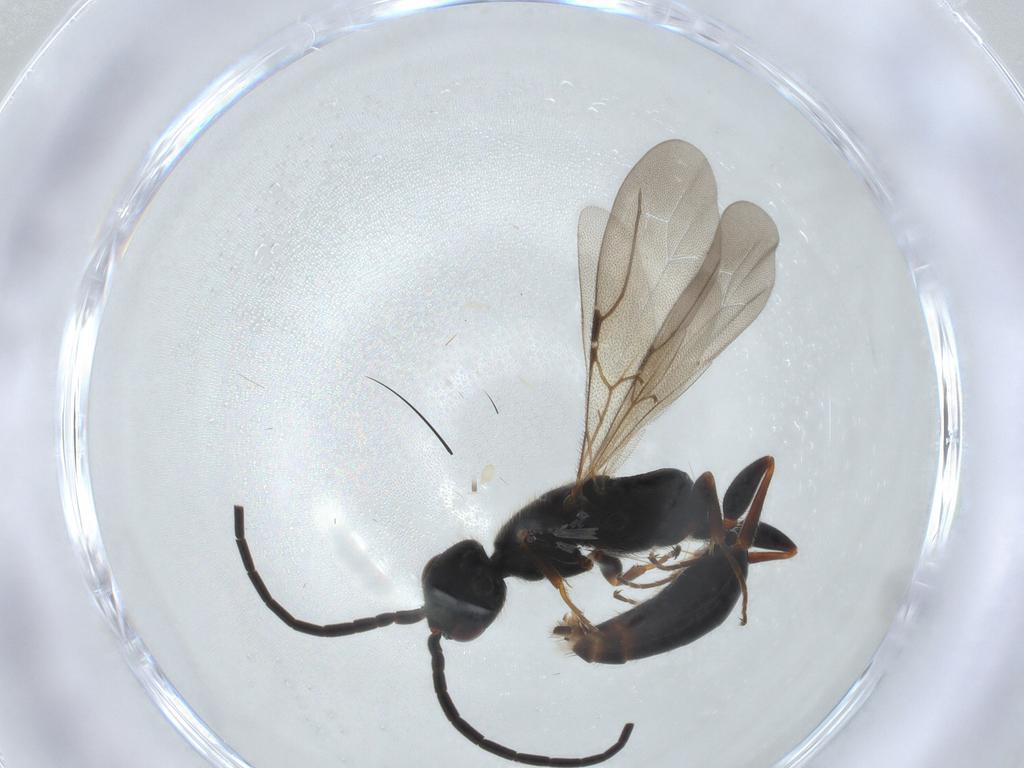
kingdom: Animalia
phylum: Arthropoda
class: Insecta
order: Hymenoptera
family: Bethylidae
